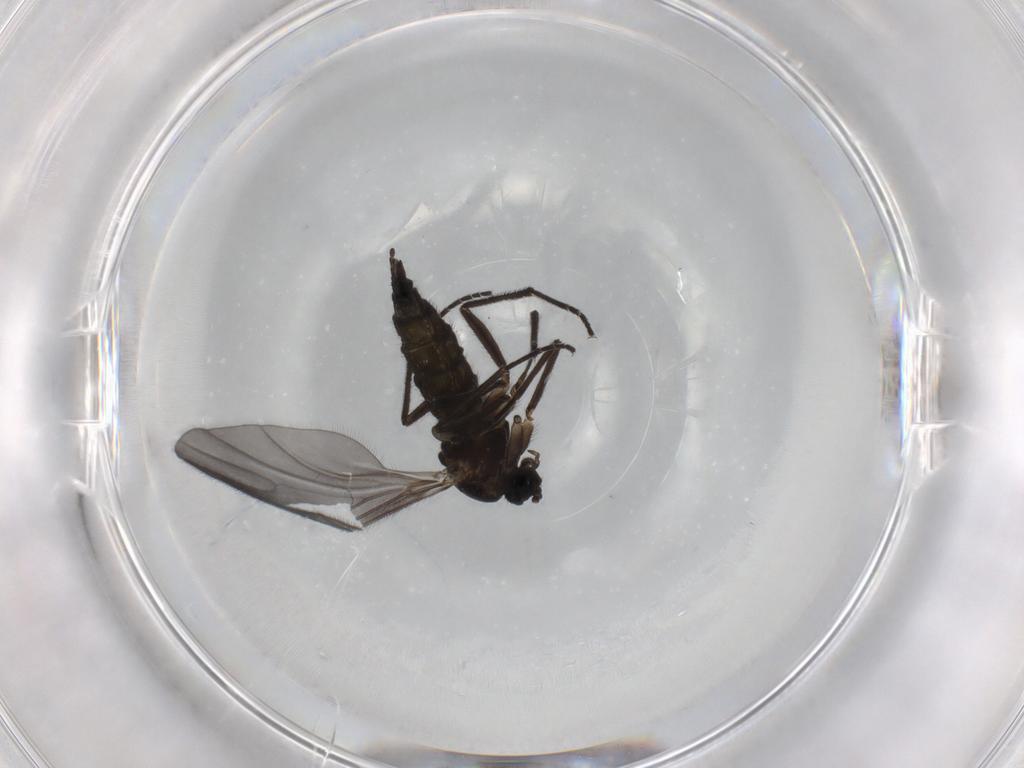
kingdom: Animalia
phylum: Arthropoda
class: Insecta
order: Diptera
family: Sciaridae
